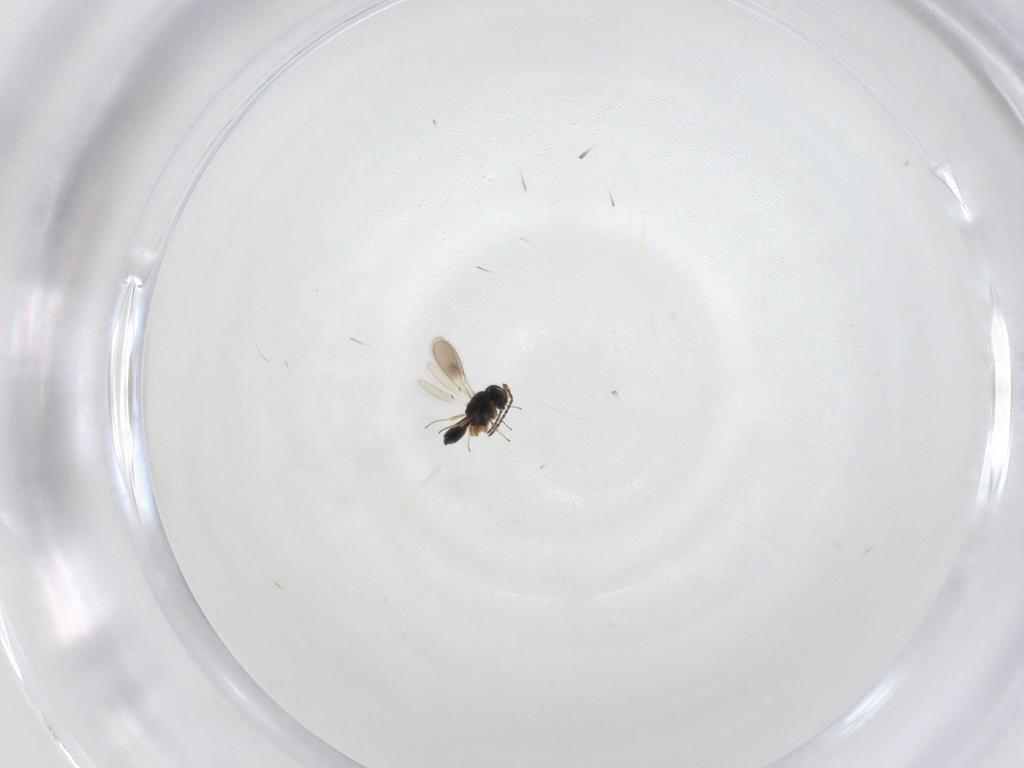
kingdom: Animalia
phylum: Arthropoda
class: Insecta
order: Hymenoptera
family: Scelionidae
